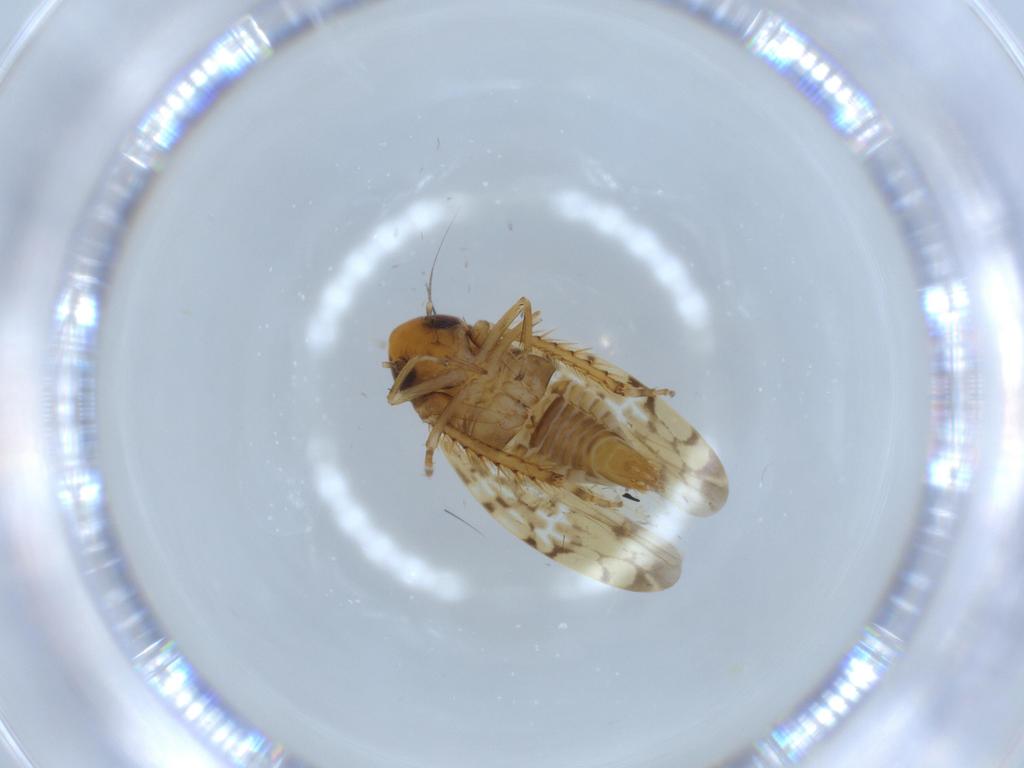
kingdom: Animalia
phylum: Arthropoda
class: Insecta
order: Hemiptera
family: Cicadellidae
